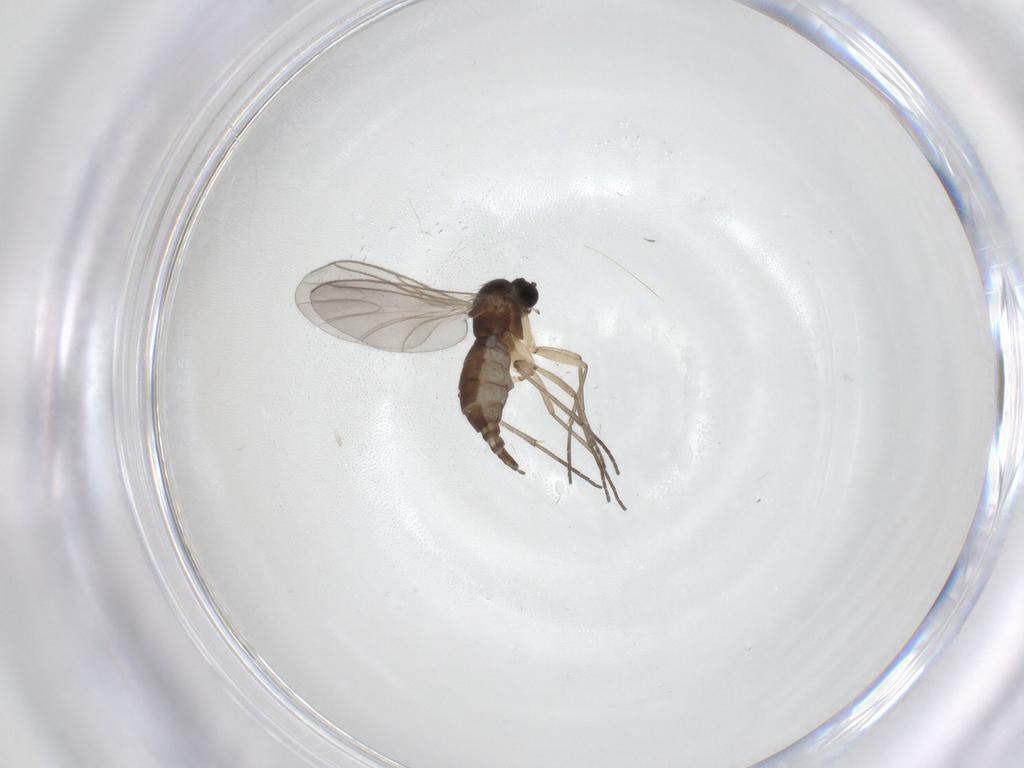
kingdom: Animalia
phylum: Arthropoda
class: Insecta
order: Diptera
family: Sciaridae
